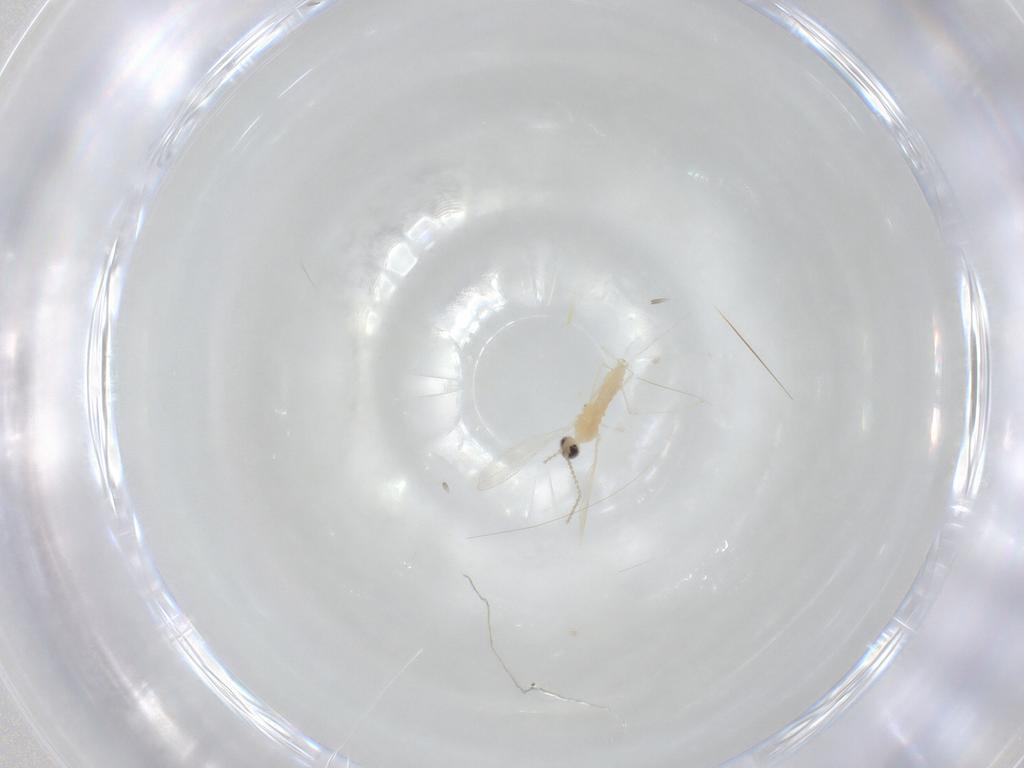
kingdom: Animalia
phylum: Arthropoda
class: Insecta
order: Diptera
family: Cecidomyiidae
